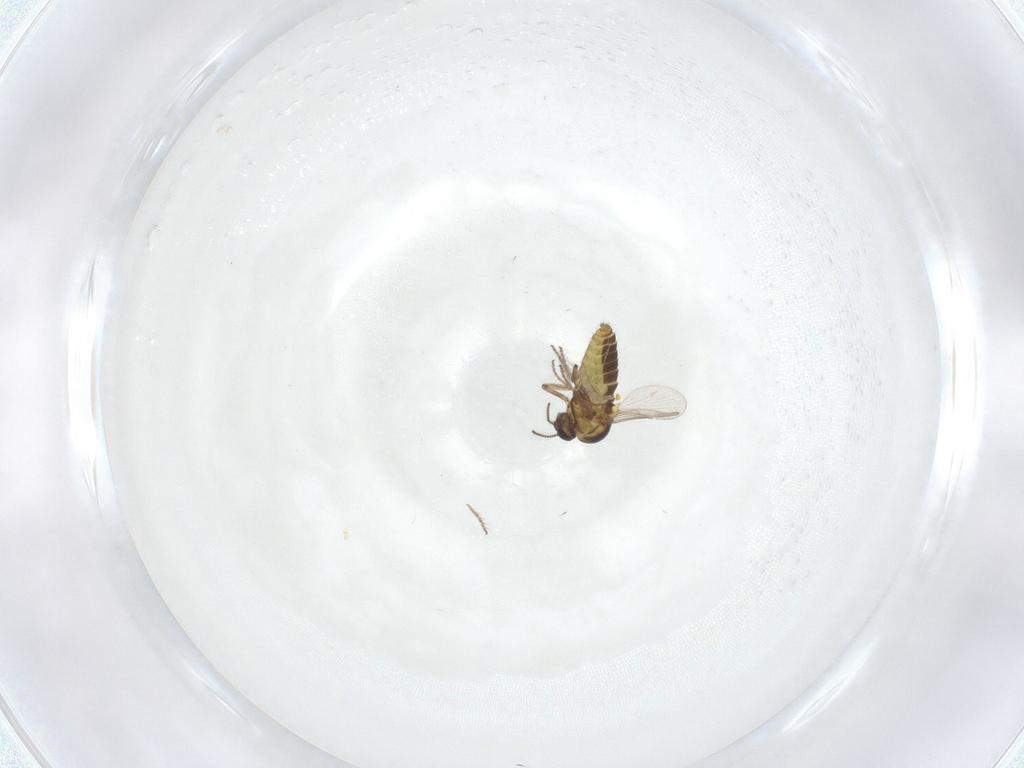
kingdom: Animalia
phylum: Arthropoda
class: Insecta
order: Diptera
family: Ceratopogonidae
